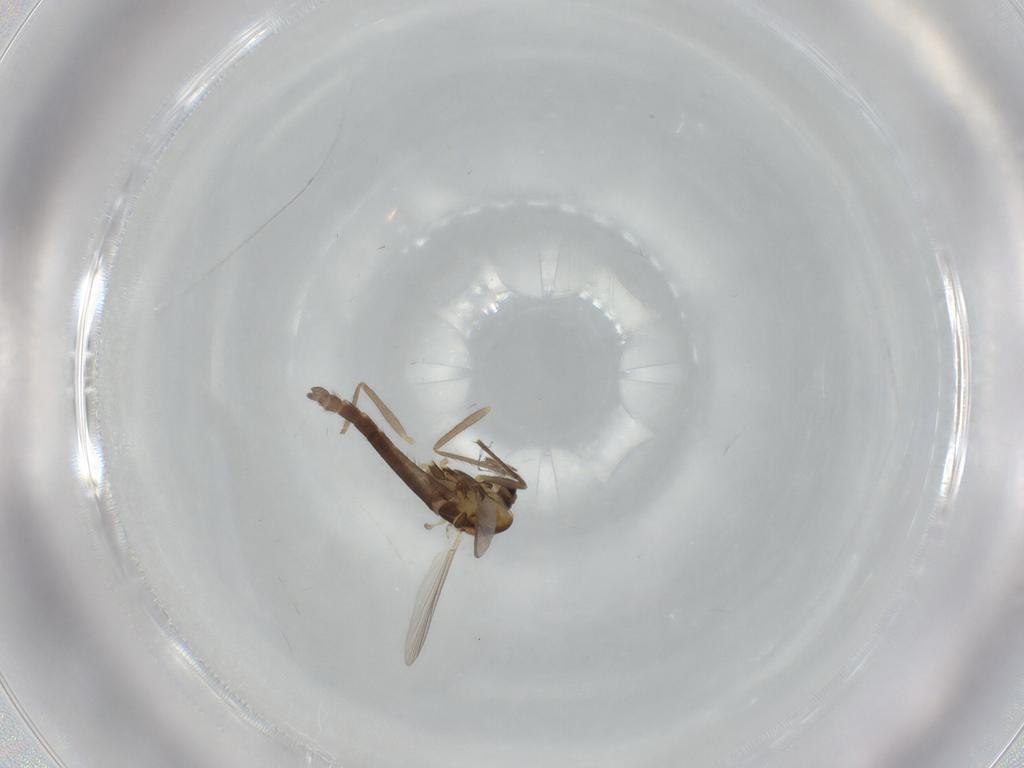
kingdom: Animalia
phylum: Arthropoda
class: Insecta
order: Diptera
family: Chironomidae
